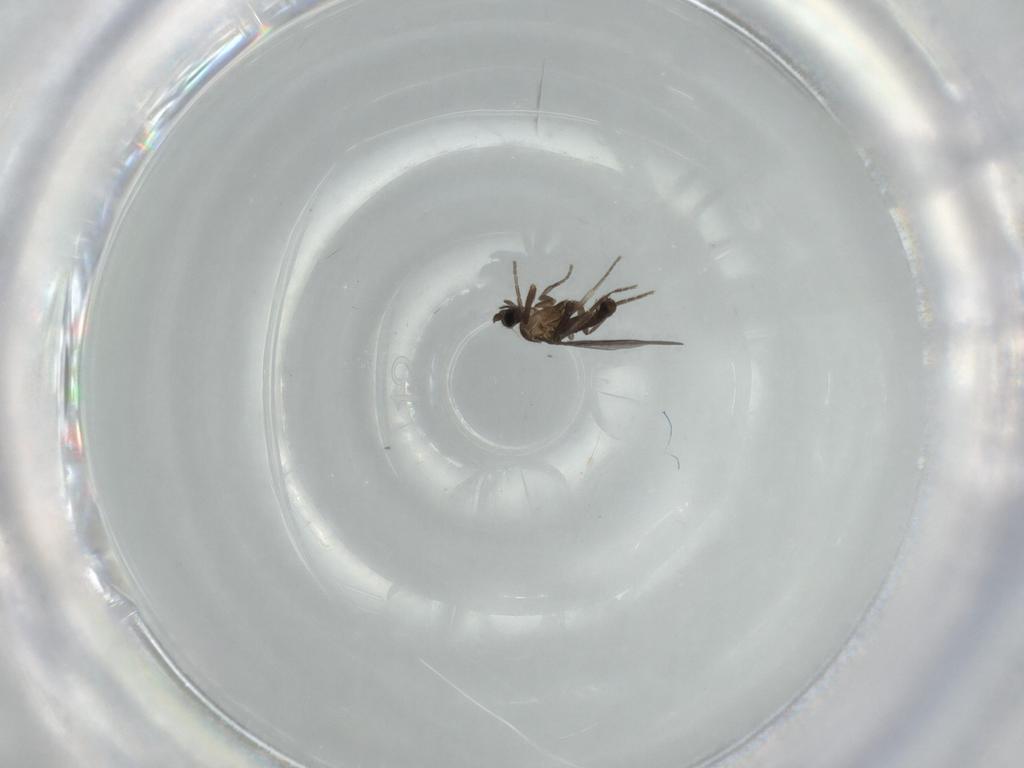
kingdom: Animalia
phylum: Arthropoda
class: Insecta
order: Diptera
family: Phoridae
